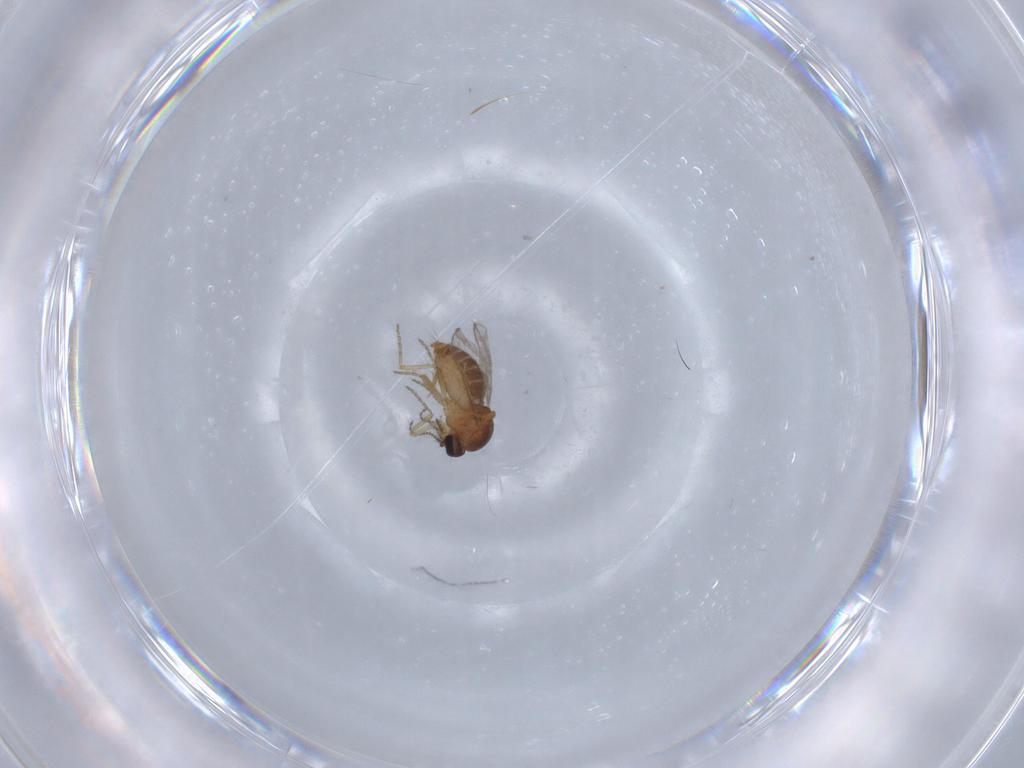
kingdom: Animalia
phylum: Arthropoda
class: Insecta
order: Diptera
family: Ceratopogonidae
